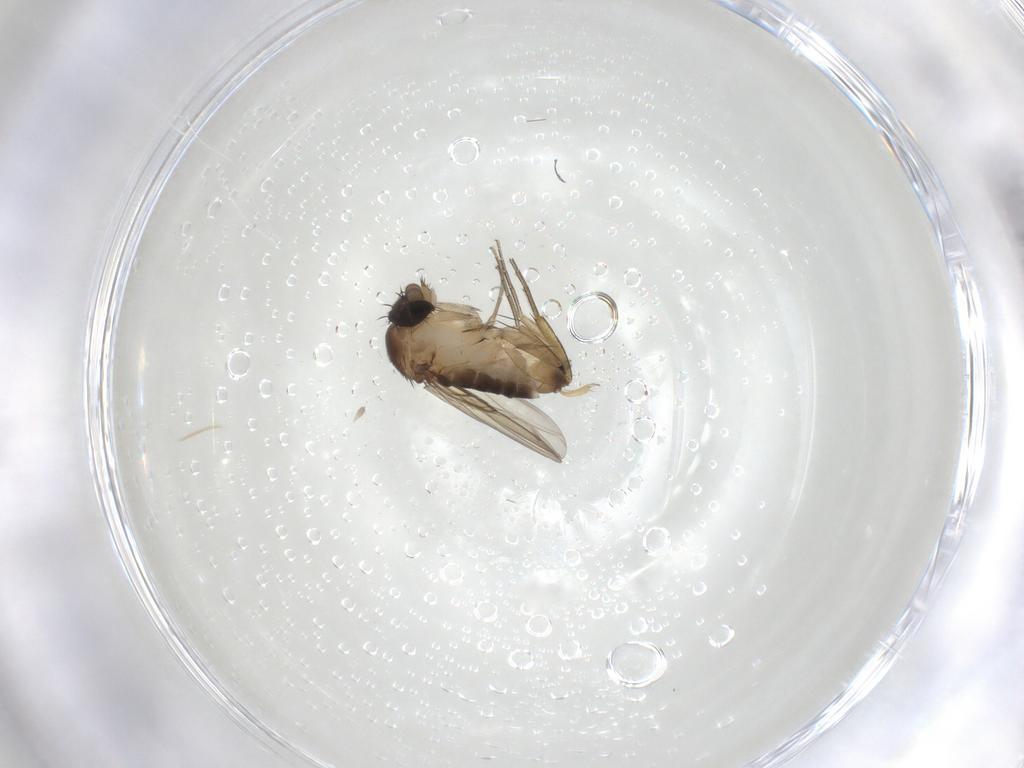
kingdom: Animalia
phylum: Arthropoda
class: Insecta
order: Diptera
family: Phoridae
